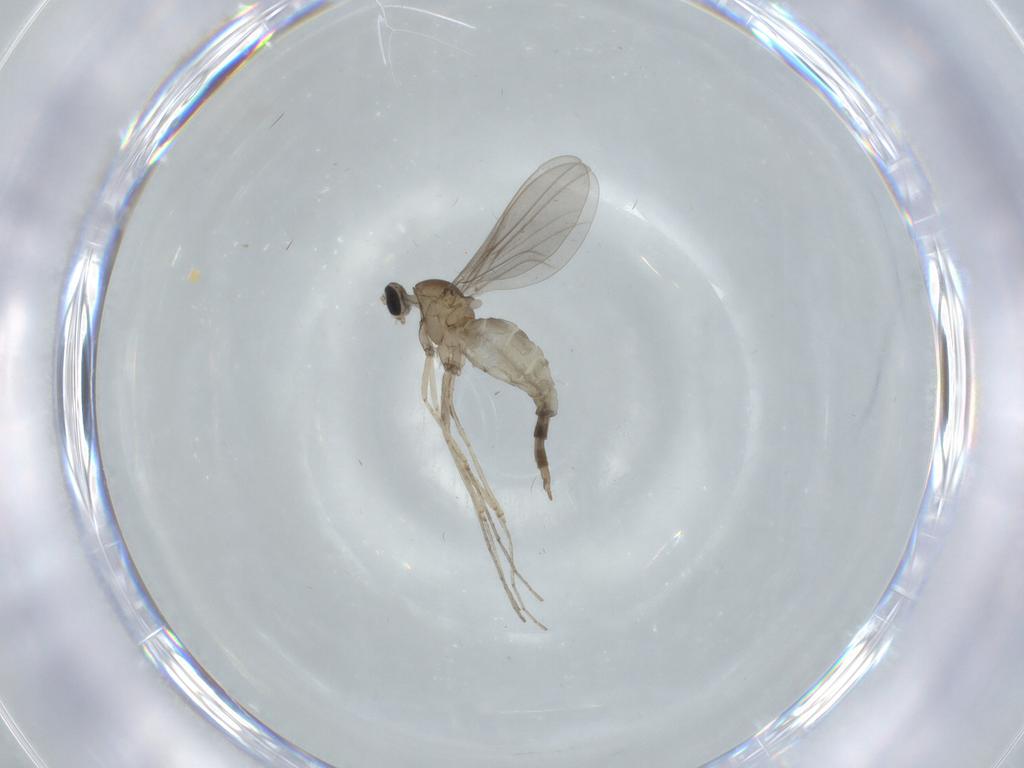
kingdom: Animalia
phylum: Arthropoda
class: Insecta
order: Diptera
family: Cecidomyiidae
